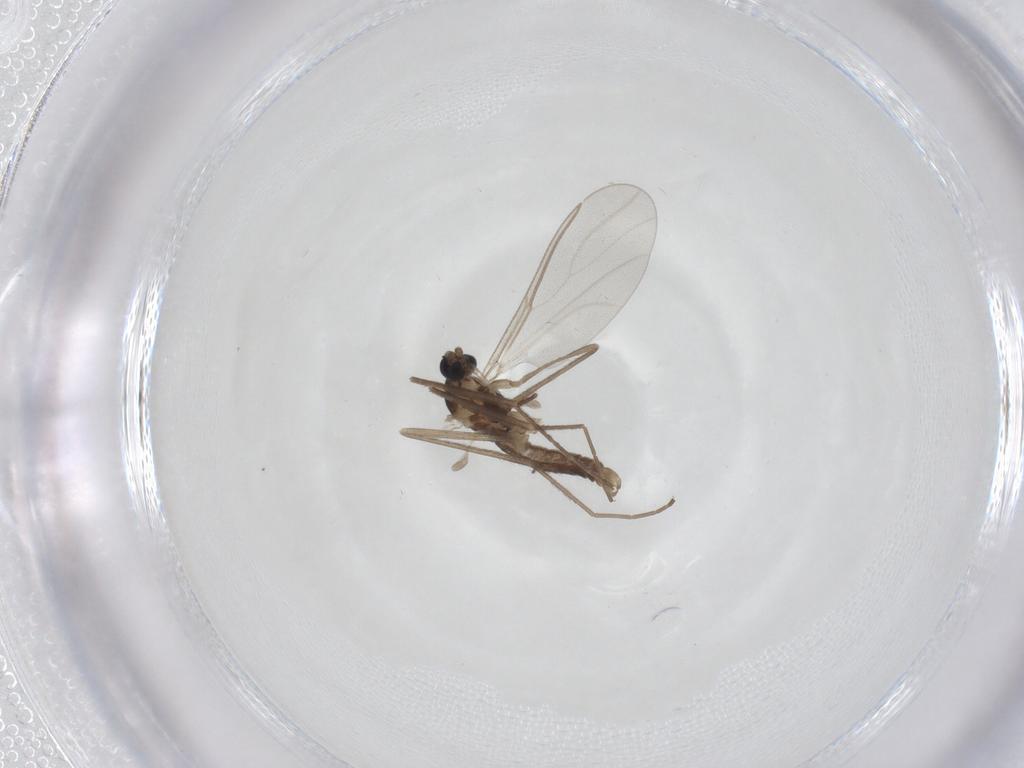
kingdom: Animalia
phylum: Arthropoda
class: Insecta
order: Diptera
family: Cecidomyiidae
